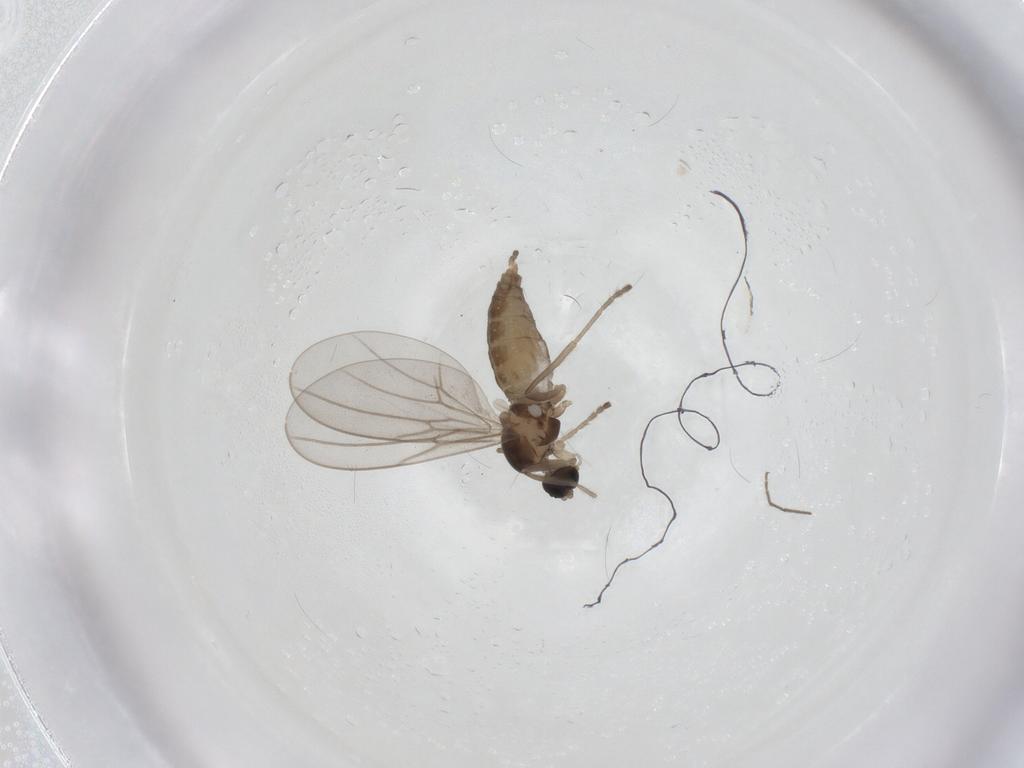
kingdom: Animalia
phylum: Arthropoda
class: Insecta
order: Diptera
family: Cecidomyiidae
